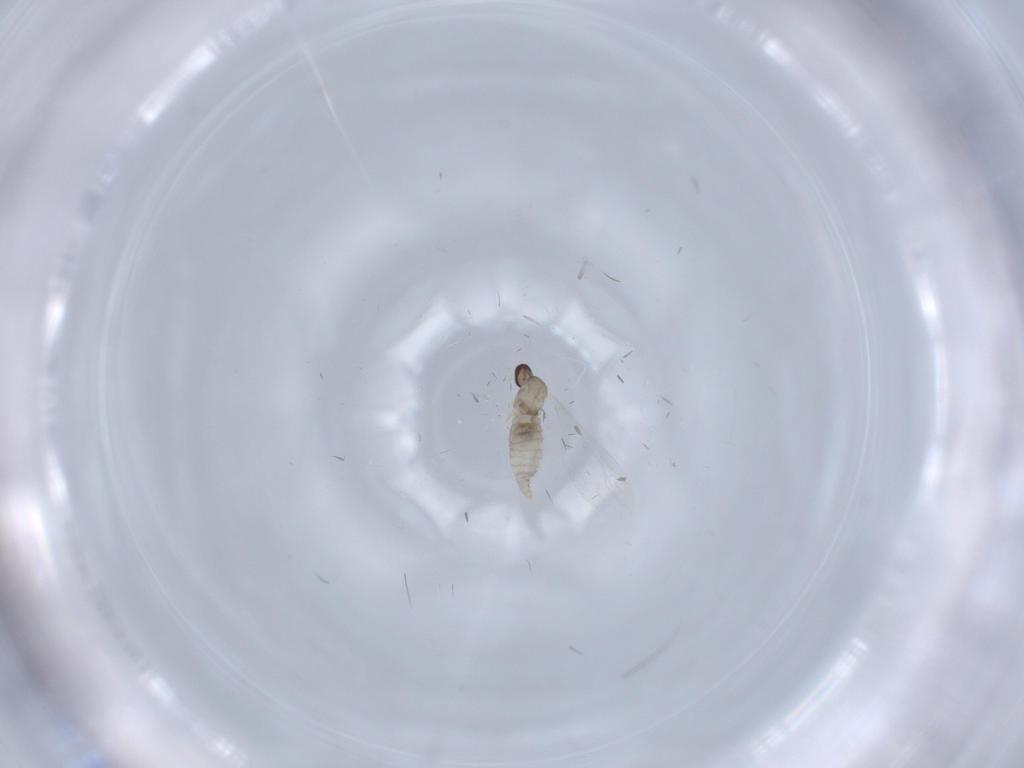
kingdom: Animalia
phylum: Arthropoda
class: Insecta
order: Diptera
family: Cecidomyiidae
